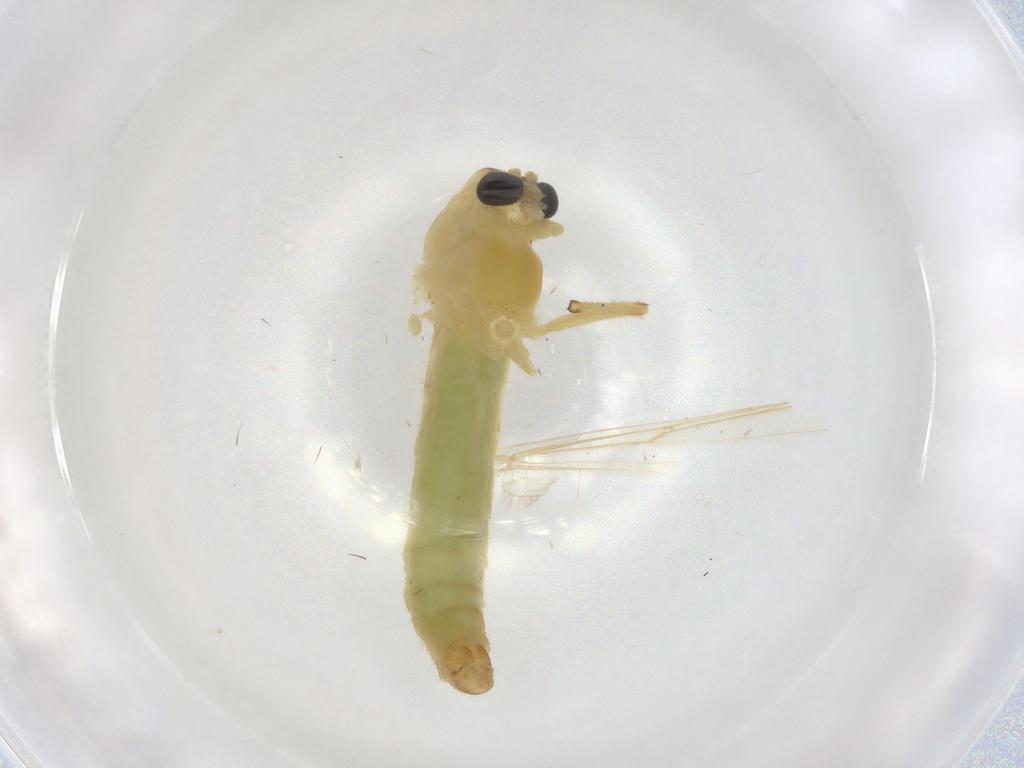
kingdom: Animalia
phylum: Arthropoda
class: Insecta
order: Diptera
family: Chironomidae
